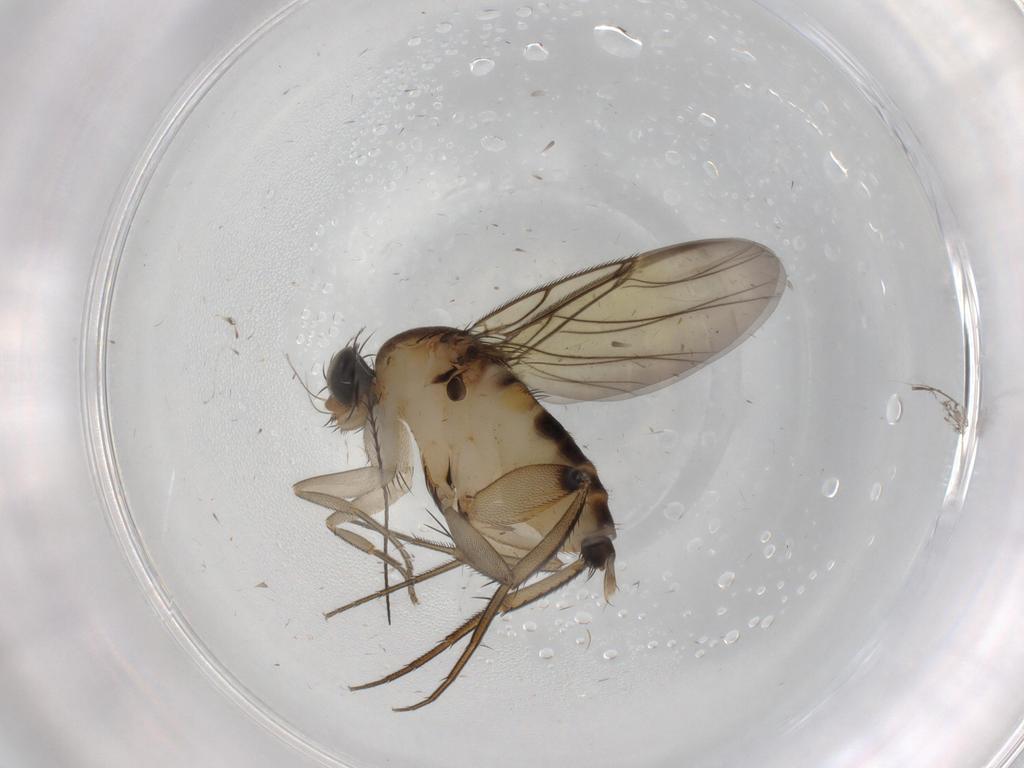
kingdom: Animalia
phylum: Arthropoda
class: Insecta
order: Diptera
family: Phoridae
